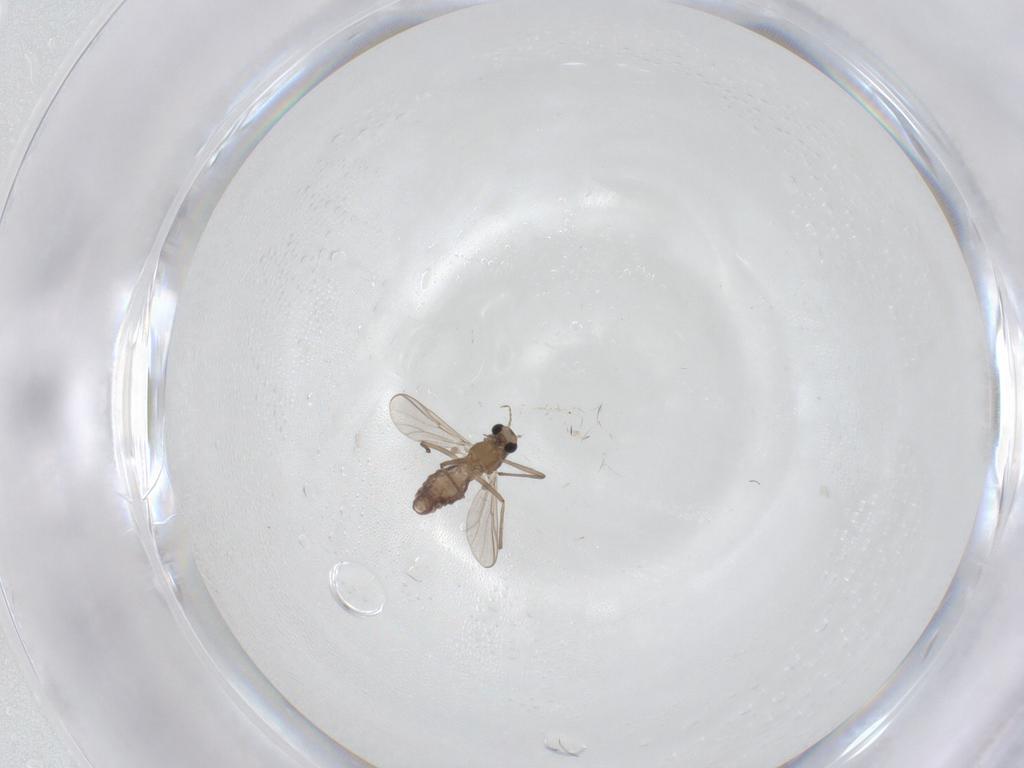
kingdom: Animalia
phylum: Arthropoda
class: Insecta
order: Diptera
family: Chironomidae
